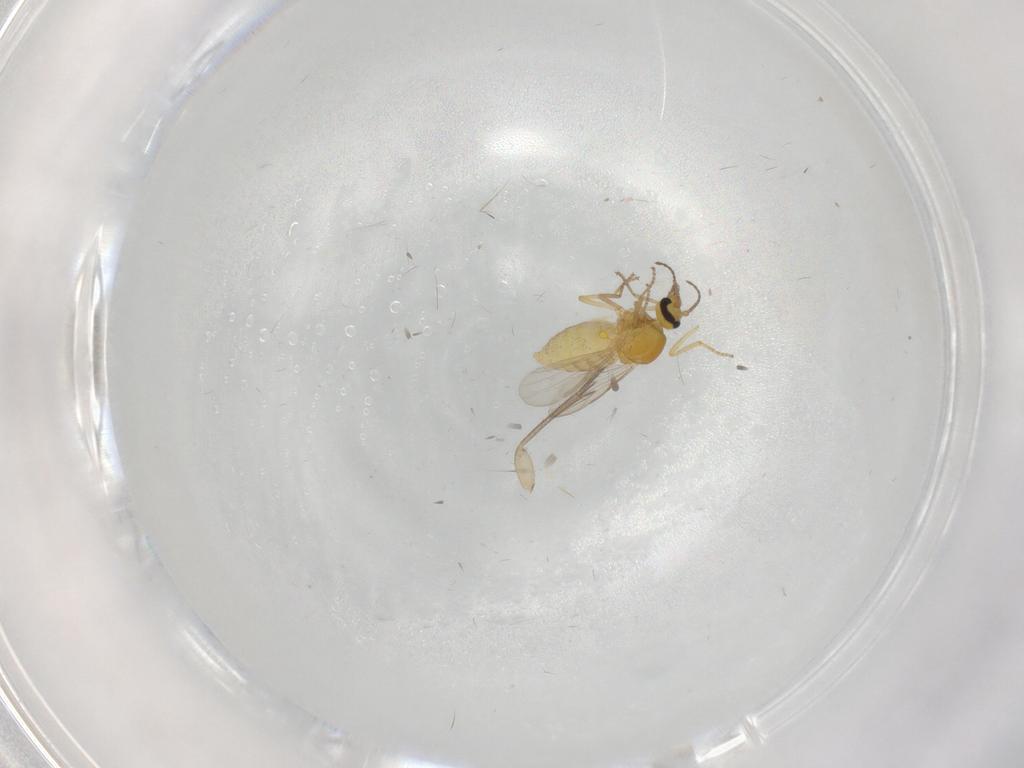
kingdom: Animalia
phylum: Arthropoda
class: Insecta
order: Diptera
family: Ceratopogonidae
